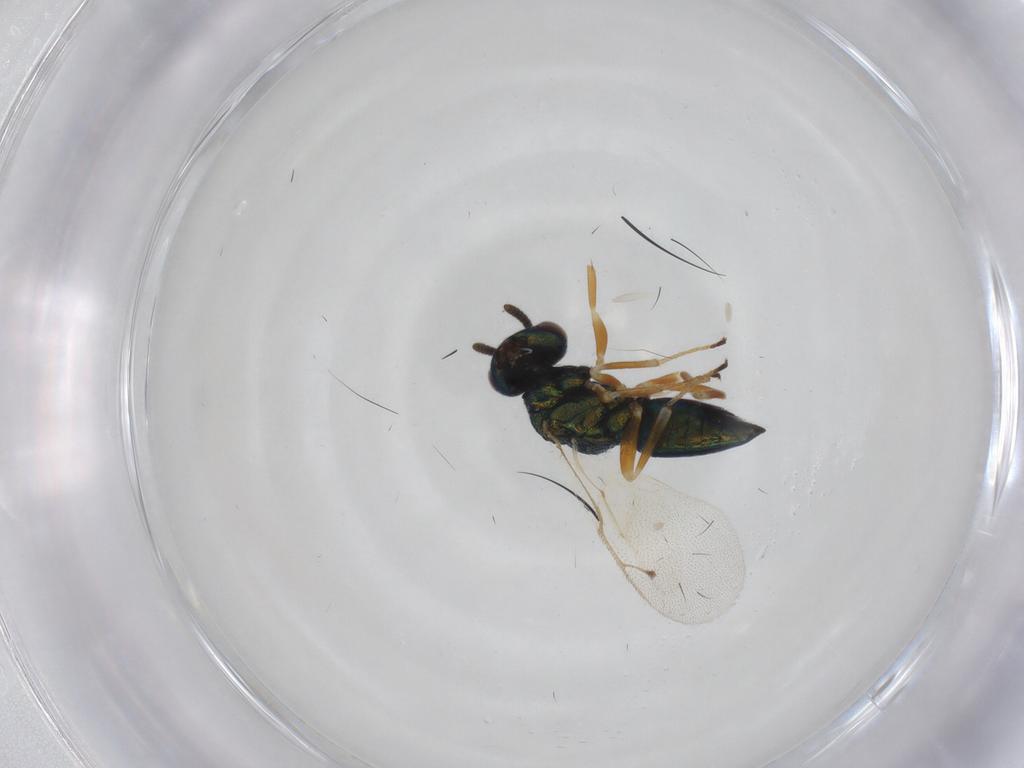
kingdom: Animalia
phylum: Arthropoda
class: Insecta
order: Hymenoptera
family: Pteromalidae
